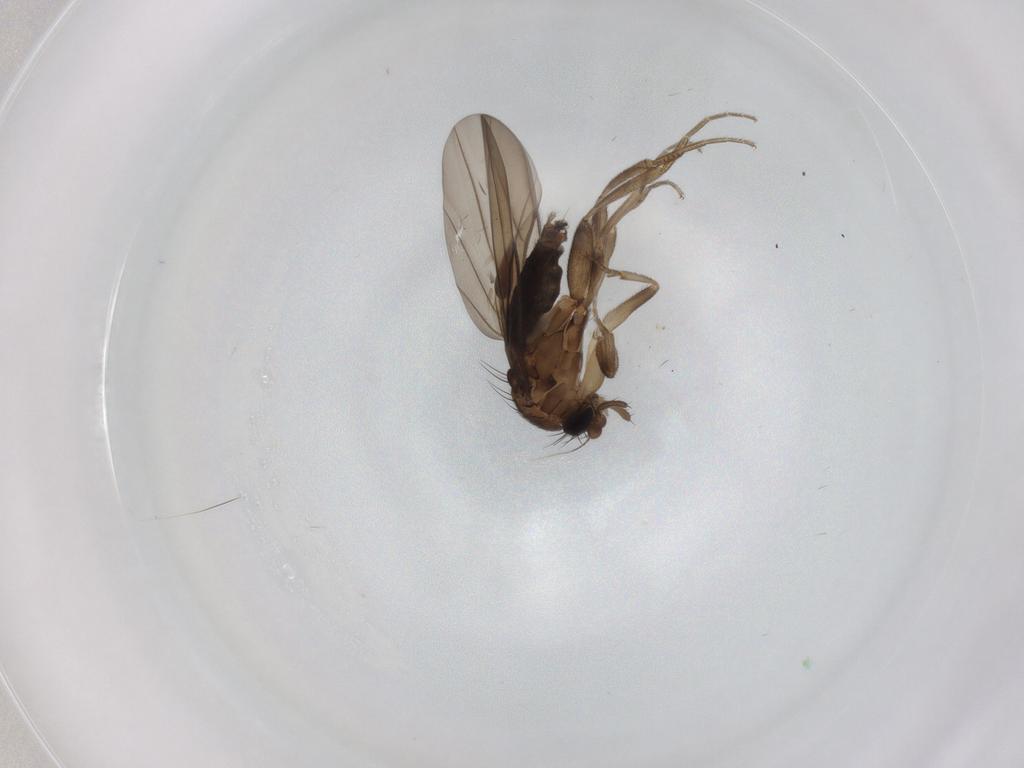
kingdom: Animalia
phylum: Arthropoda
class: Insecta
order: Diptera
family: Phoridae
